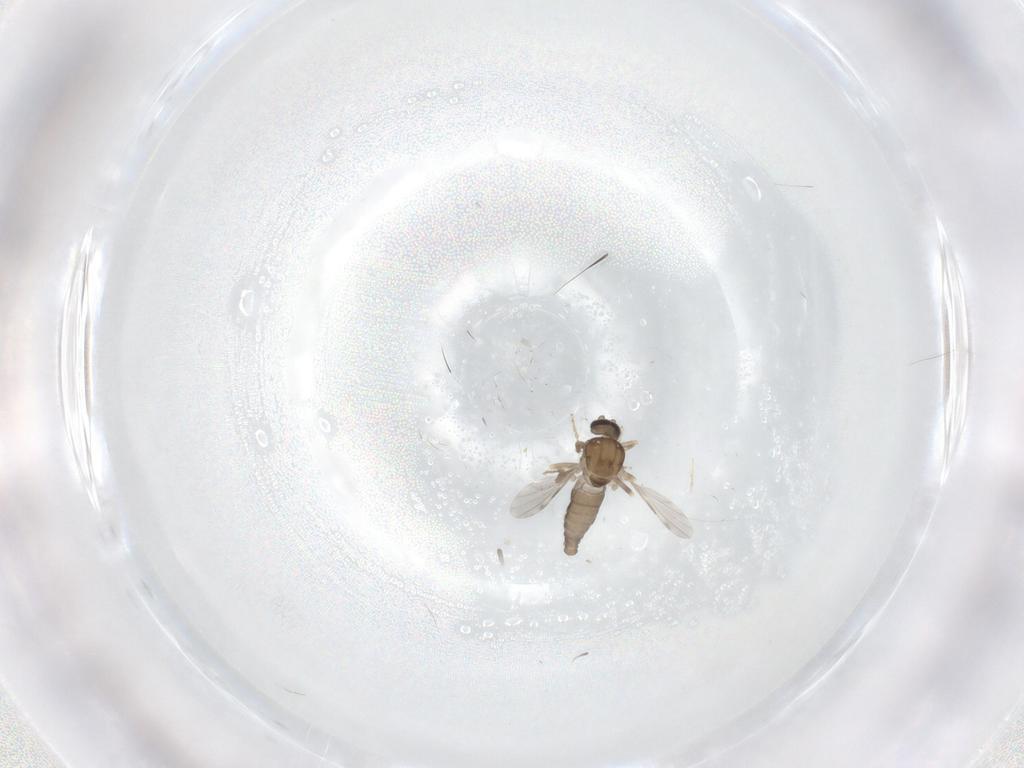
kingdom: Animalia
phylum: Arthropoda
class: Insecta
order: Diptera
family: Ceratopogonidae
